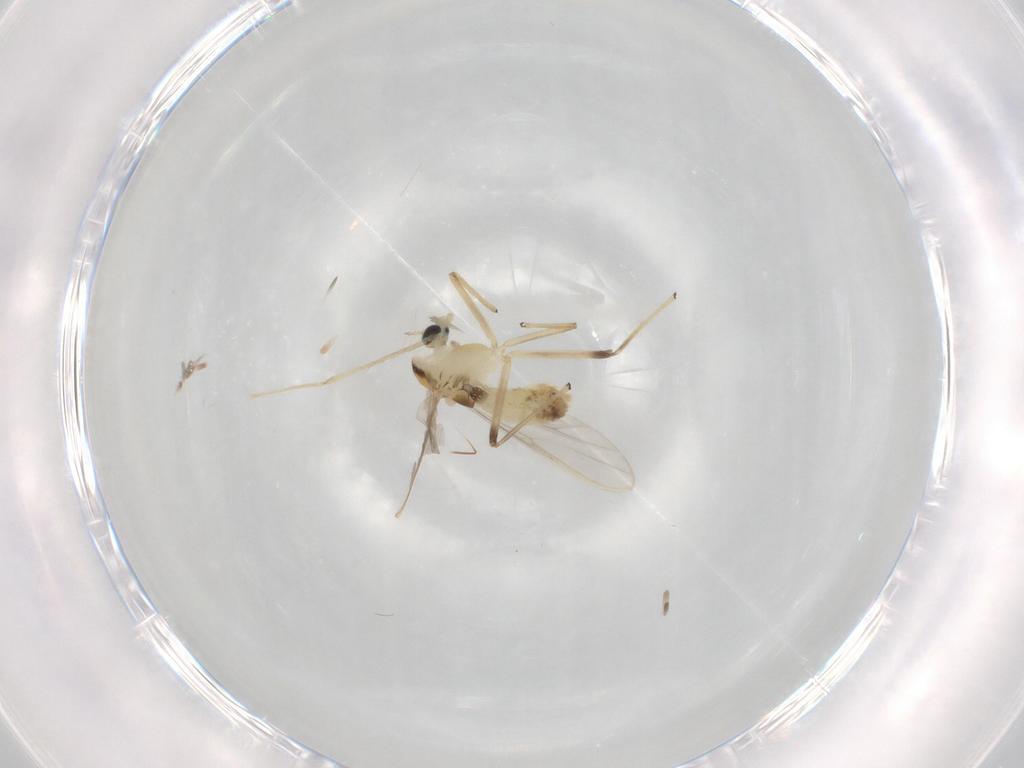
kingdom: Animalia
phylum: Arthropoda
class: Insecta
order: Diptera
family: Chironomidae
